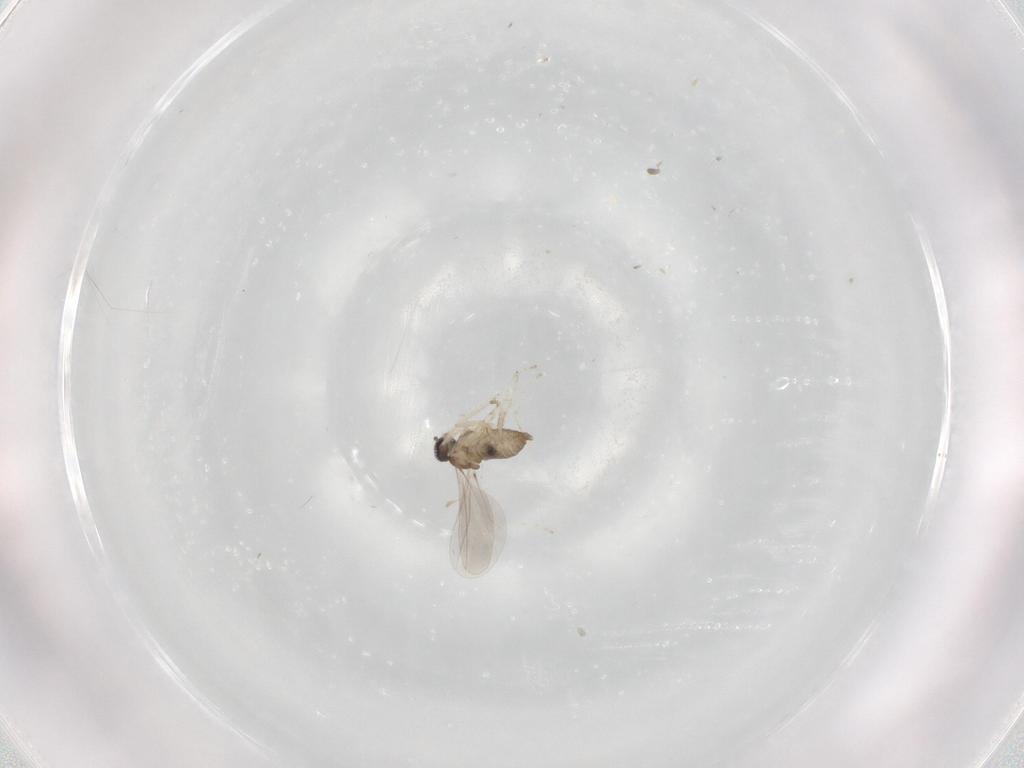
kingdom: Animalia
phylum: Arthropoda
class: Insecta
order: Diptera
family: Cecidomyiidae
